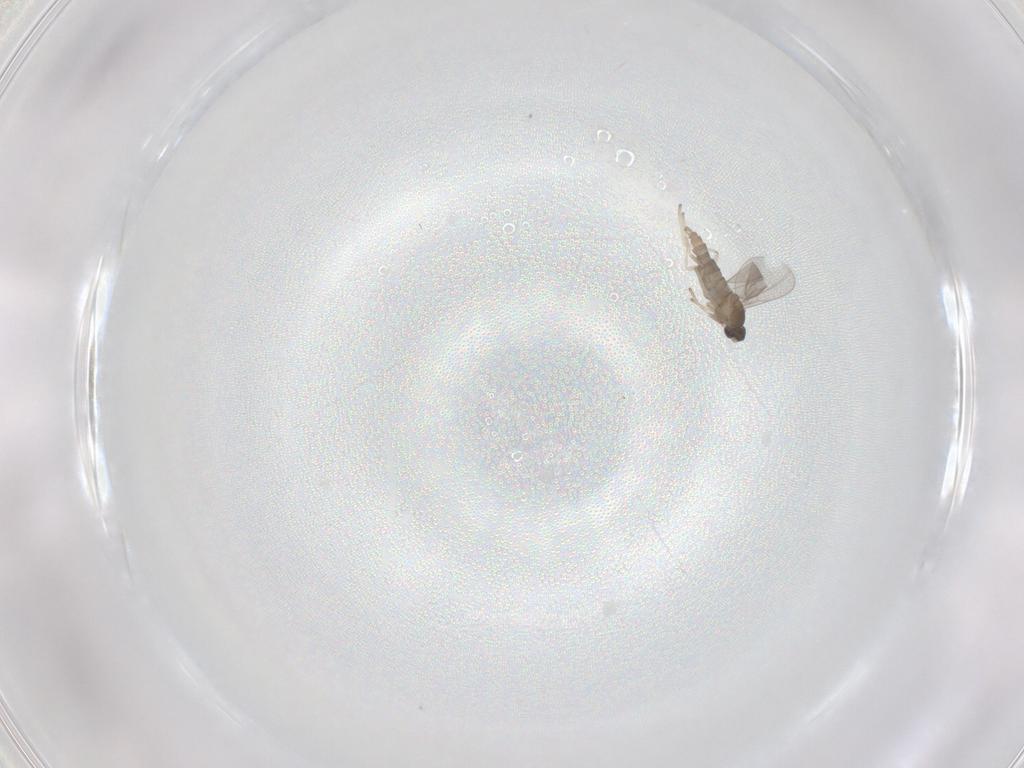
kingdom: Animalia
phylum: Arthropoda
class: Insecta
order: Diptera
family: Cecidomyiidae
